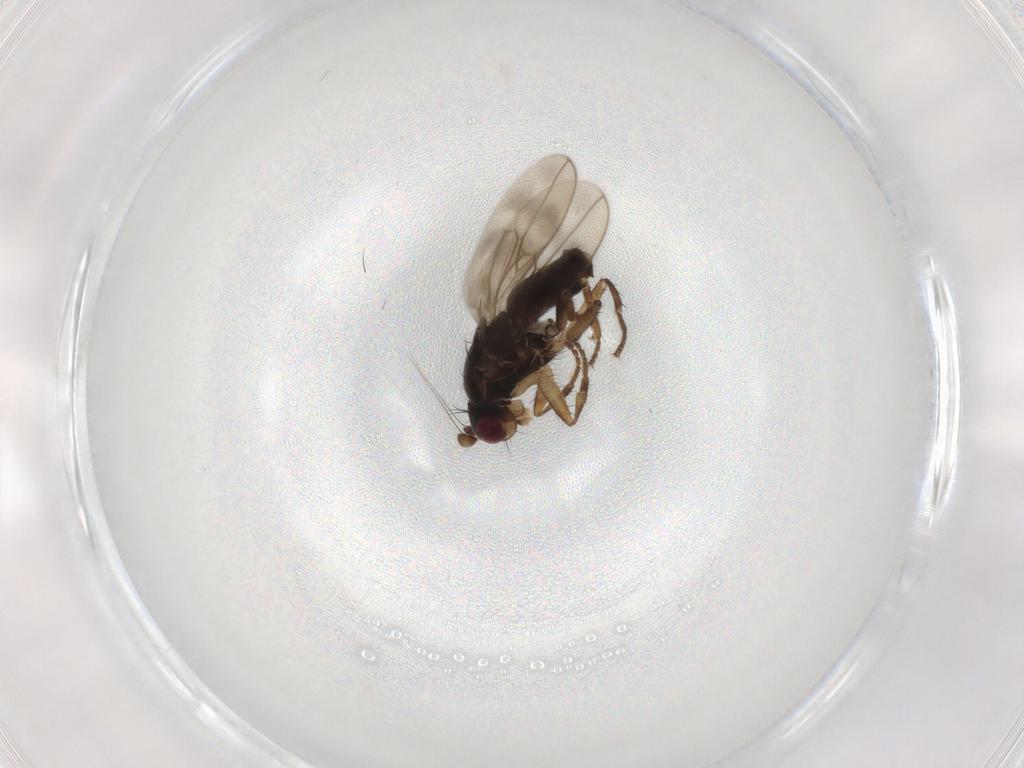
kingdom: Animalia
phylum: Arthropoda
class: Insecta
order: Diptera
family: Sphaeroceridae
